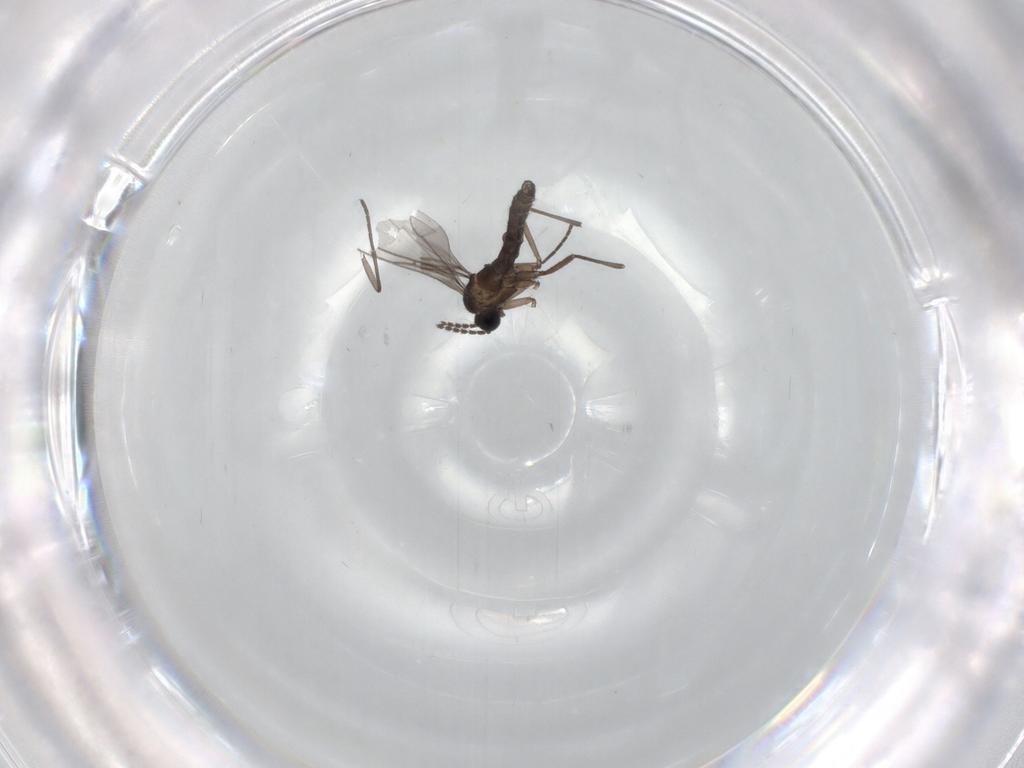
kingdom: Animalia
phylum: Arthropoda
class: Insecta
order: Diptera
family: Sciaridae
